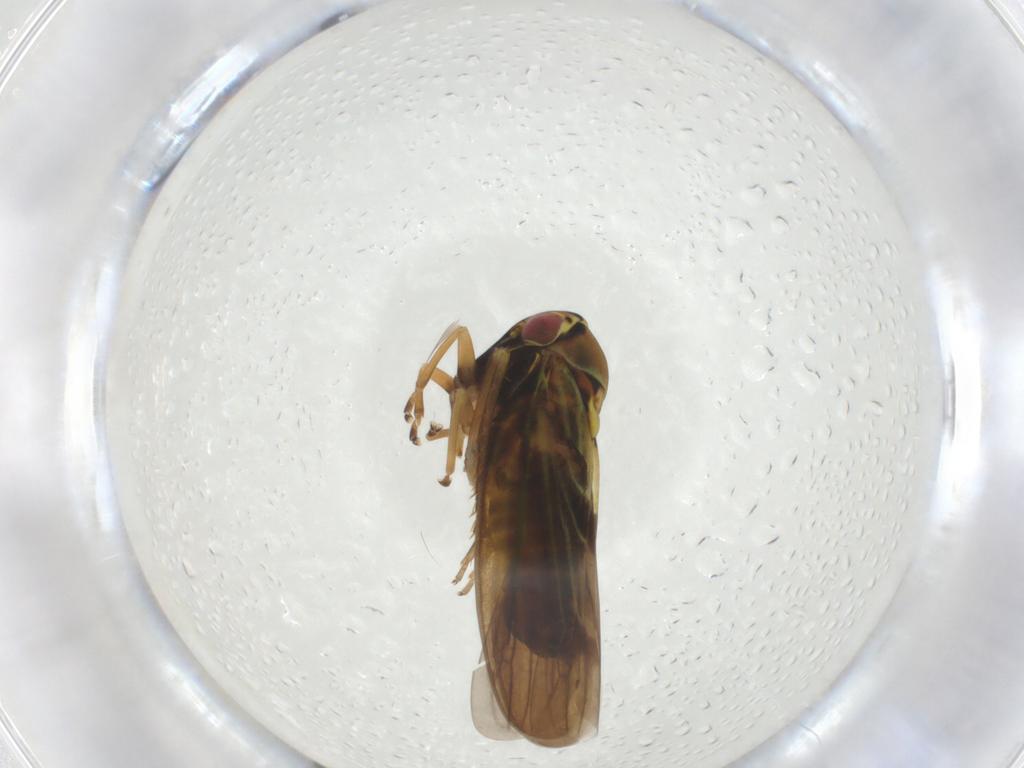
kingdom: Animalia
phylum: Arthropoda
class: Insecta
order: Hemiptera
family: Cicadellidae
